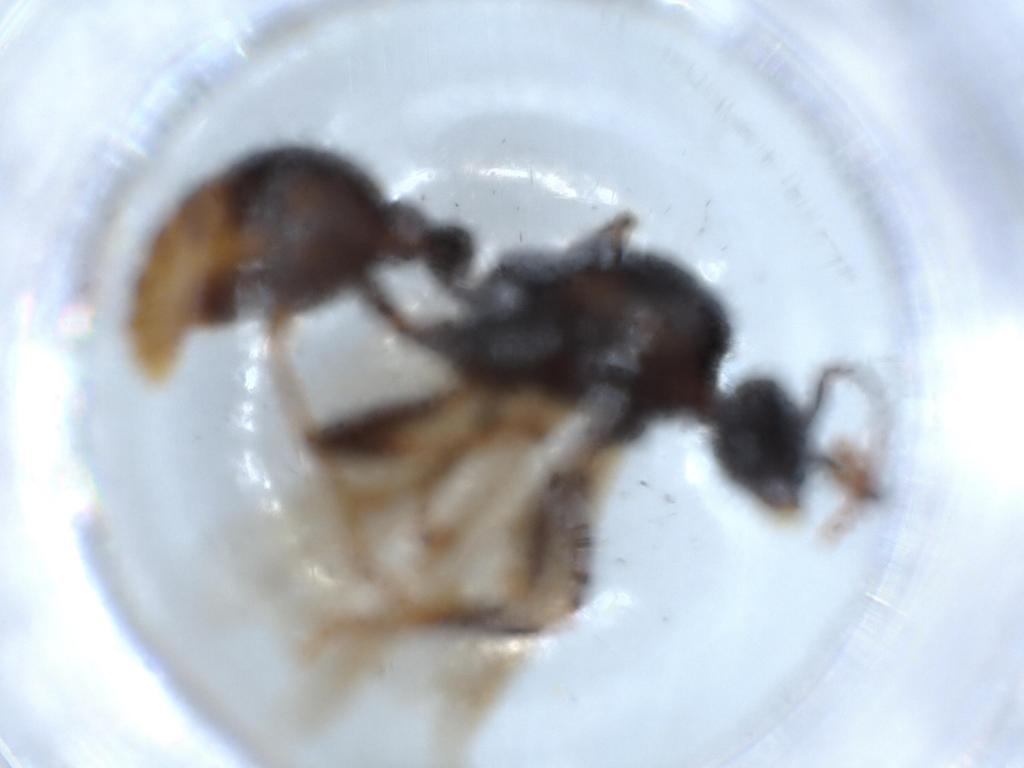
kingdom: Animalia
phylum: Arthropoda
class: Insecta
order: Hymenoptera
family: Formicidae
